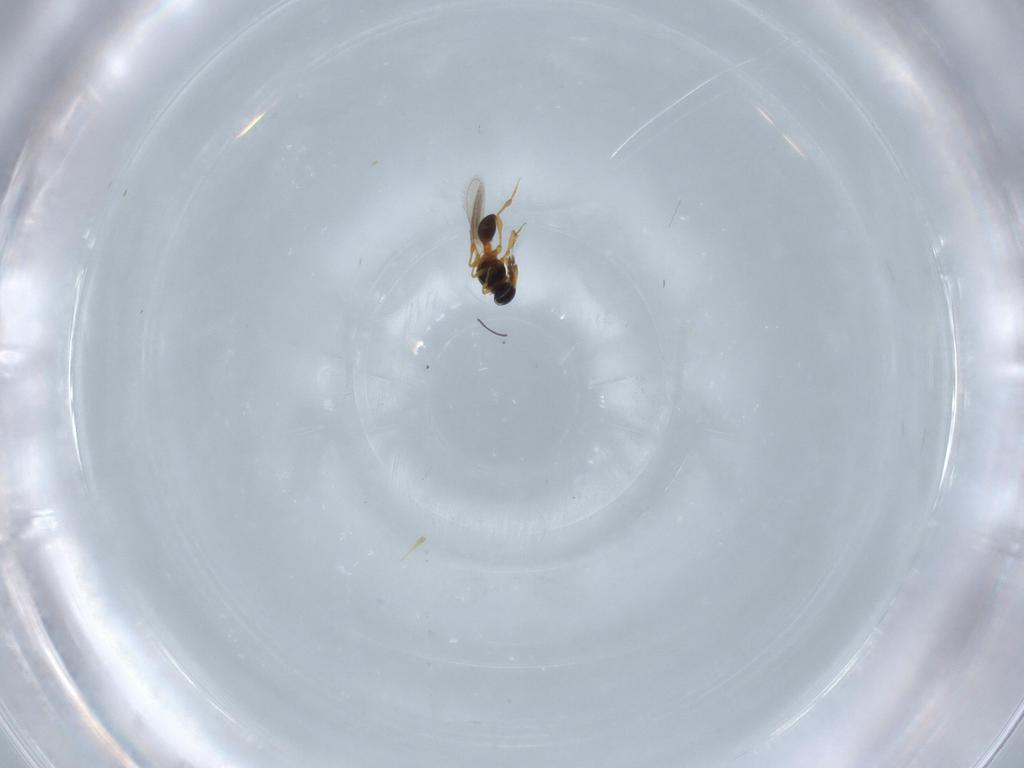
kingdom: Animalia
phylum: Arthropoda
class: Insecta
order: Hymenoptera
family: Platygastridae
